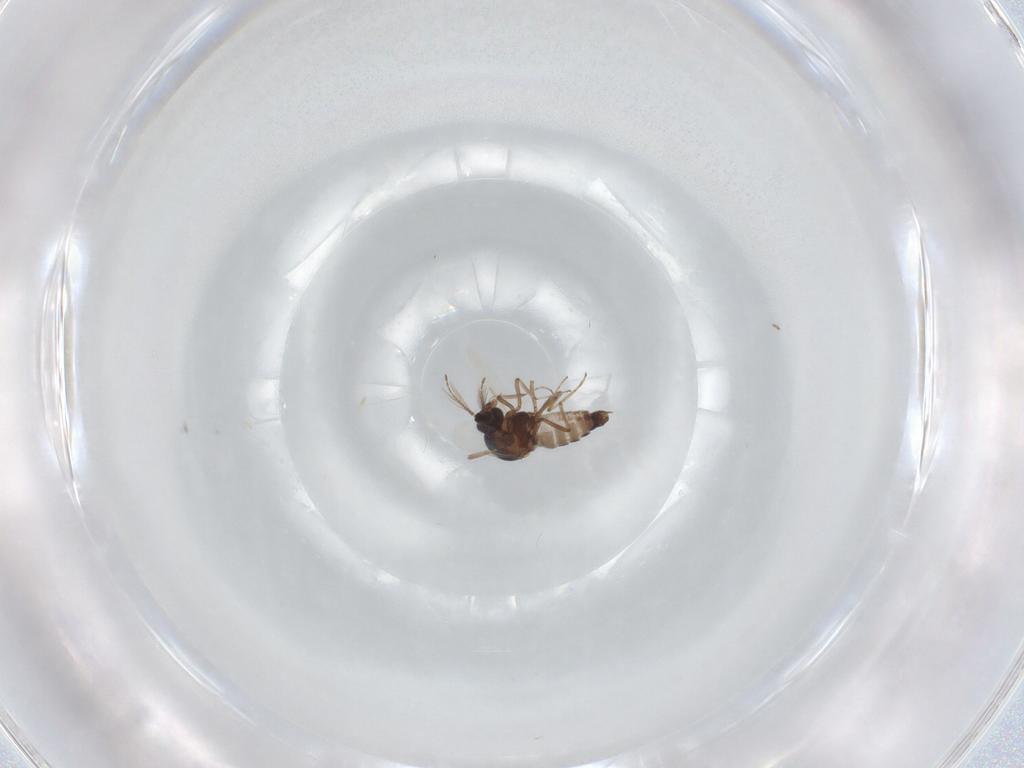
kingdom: Animalia
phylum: Arthropoda
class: Insecta
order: Diptera
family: Ceratopogonidae
